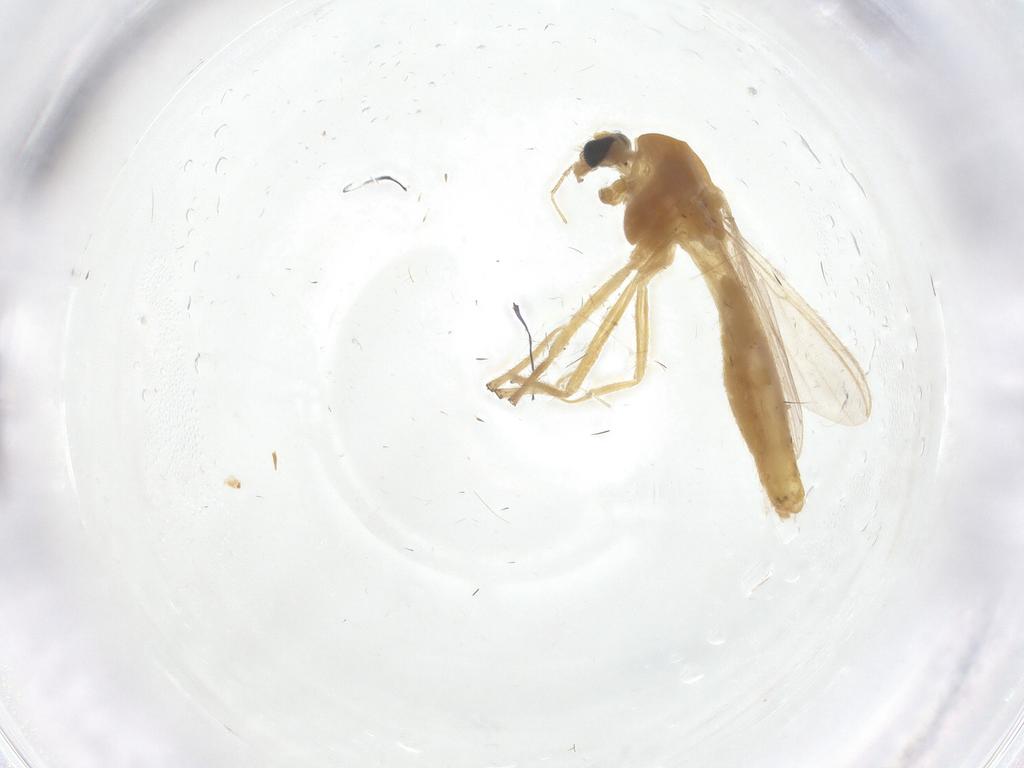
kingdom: Animalia
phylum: Arthropoda
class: Insecta
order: Diptera
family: Chironomidae
